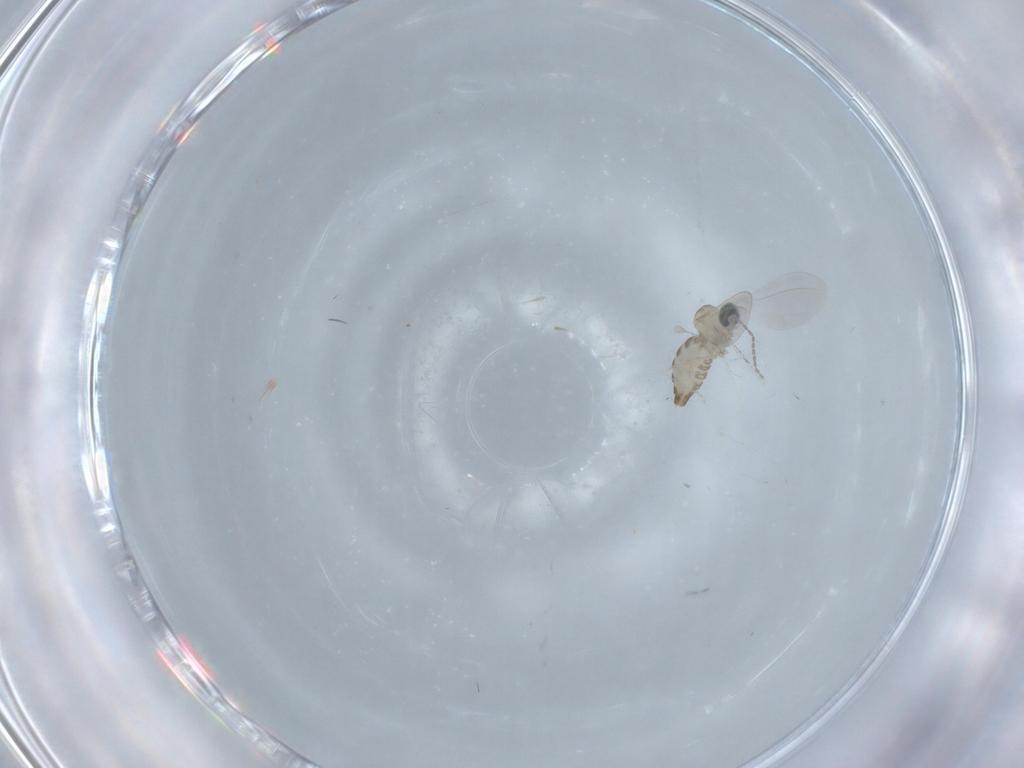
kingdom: Animalia
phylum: Arthropoda
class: Insecta
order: Diptera
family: Cecidomyiidae
